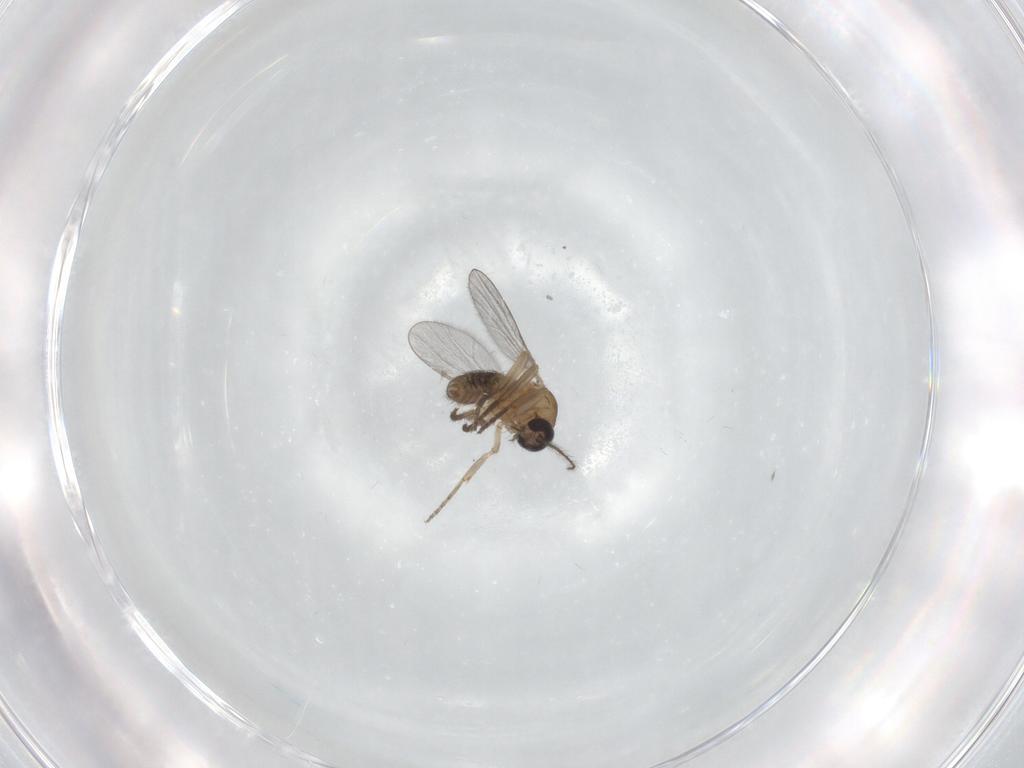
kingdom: Animalia
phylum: Arthropoda
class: Insecta
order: Diptera
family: Ceratopogonidae
